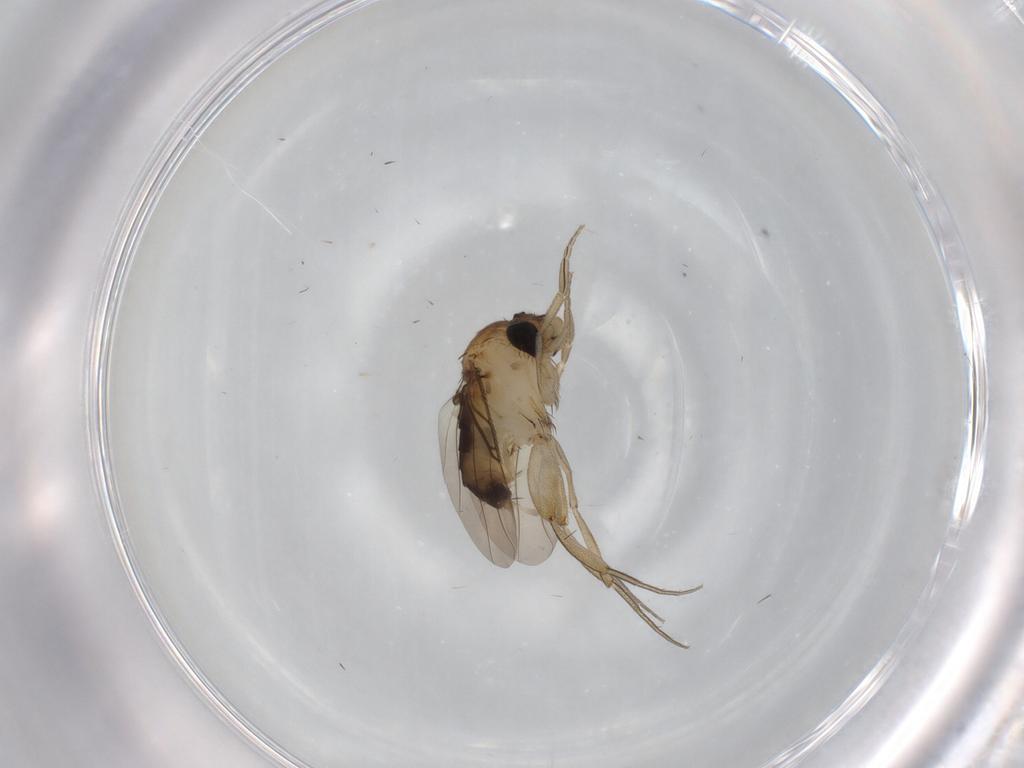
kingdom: Animalia
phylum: Arthropoda
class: Insecta
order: Diptera
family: Phoridae
